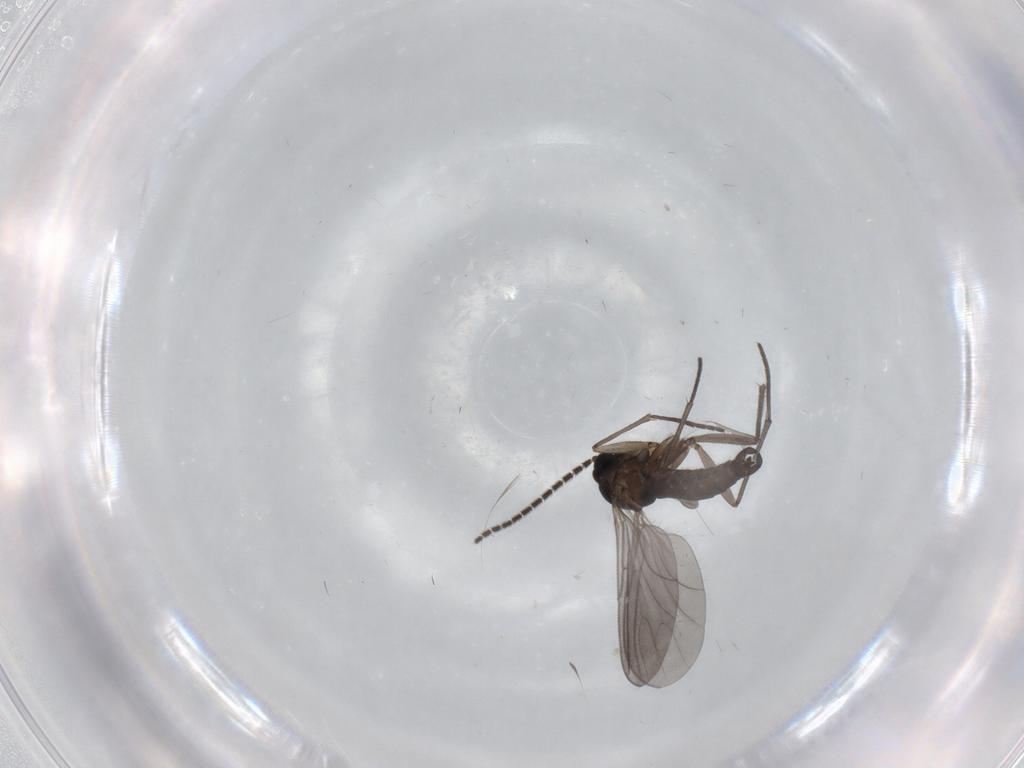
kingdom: Animalia
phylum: Arthropoda
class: Insecta
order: Diptera
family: Sciaridae
